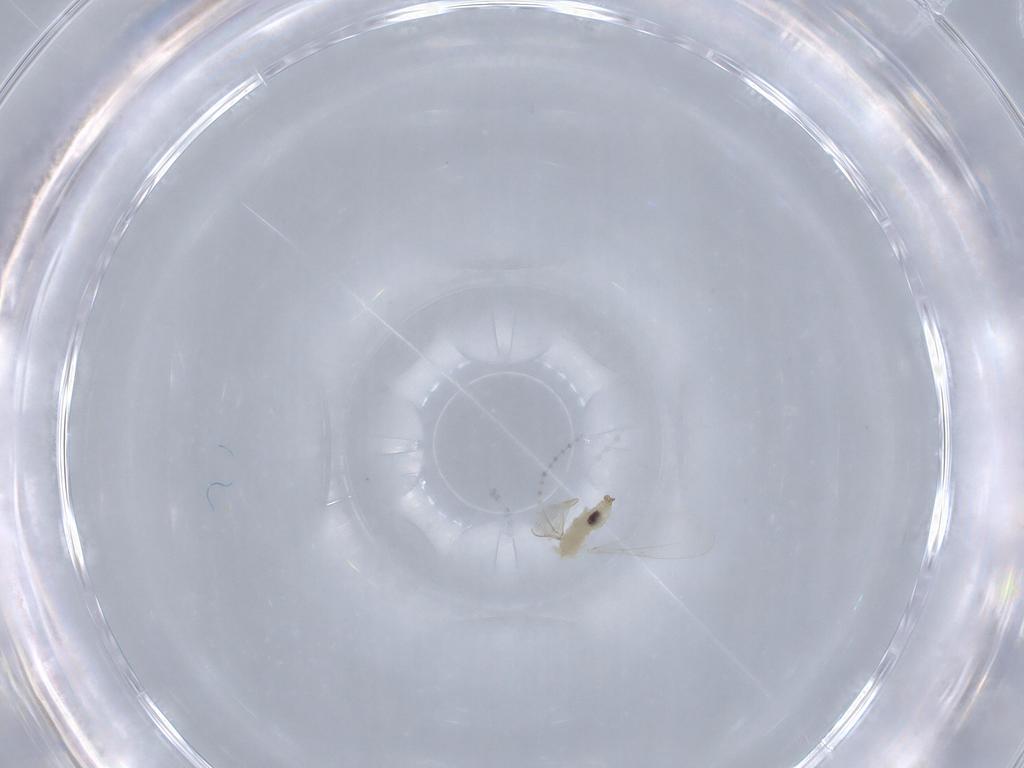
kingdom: Animalia
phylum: Arthropoda
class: Insecta
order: Diptera
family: Cecidomyiidae
